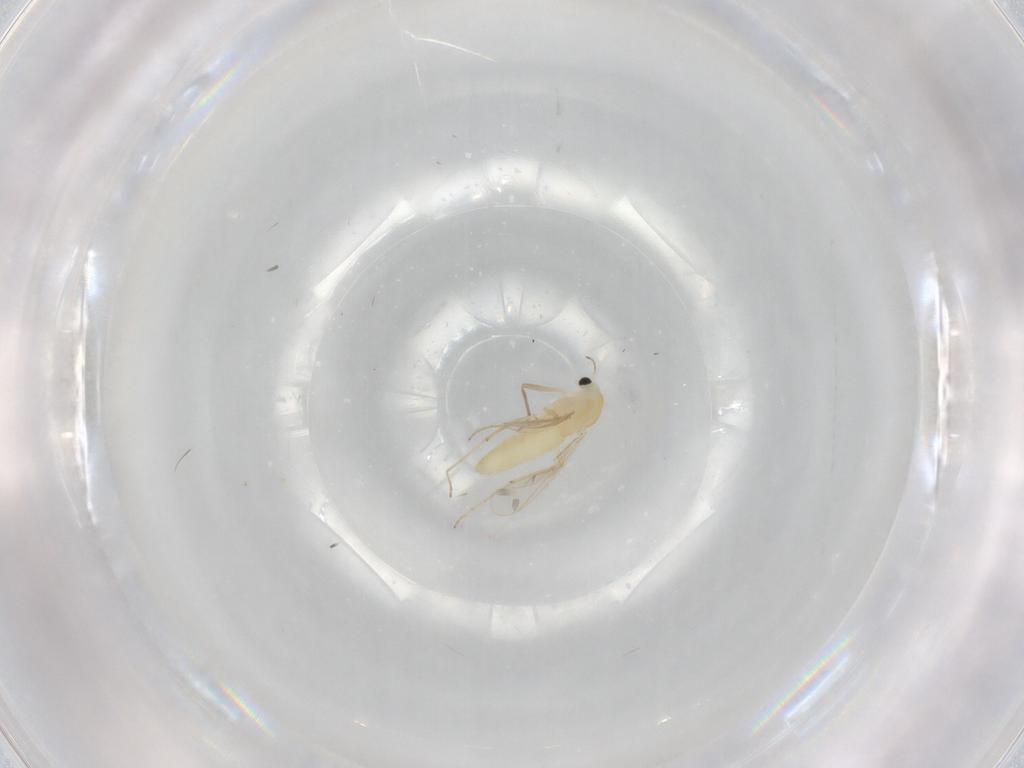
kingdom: Animalia
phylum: Arthropoda
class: Insecta
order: Diptera
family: Chironomidae
